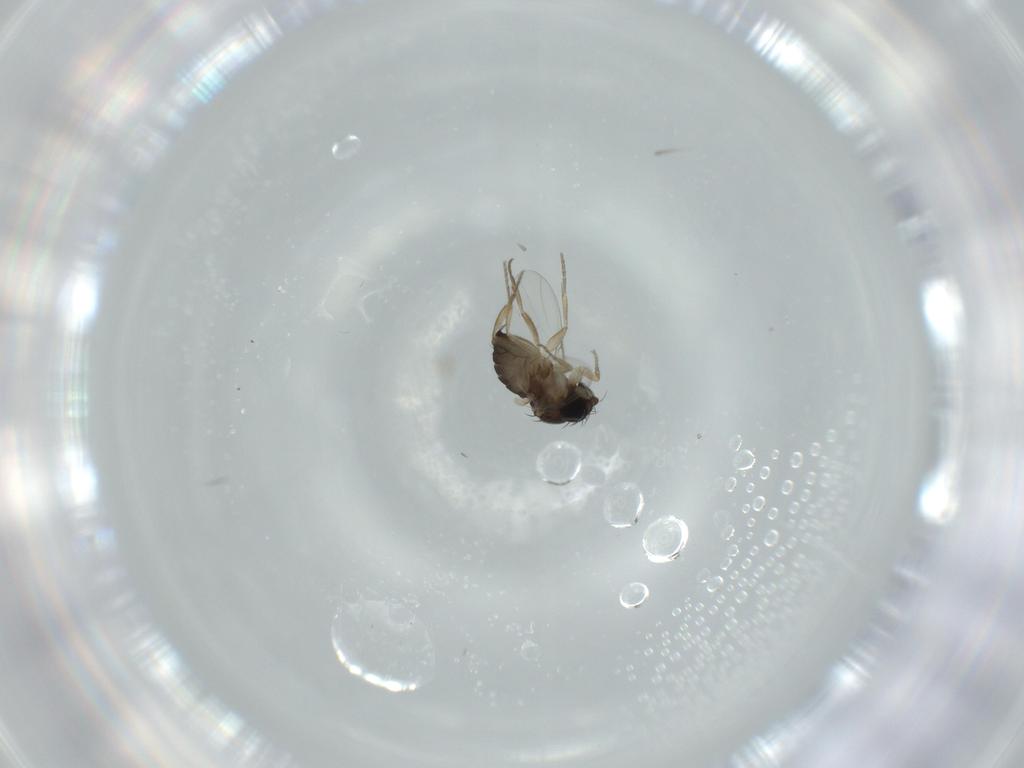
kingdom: Animalia
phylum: Arthropoda
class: Insecta
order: Diptera
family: Phoridae
